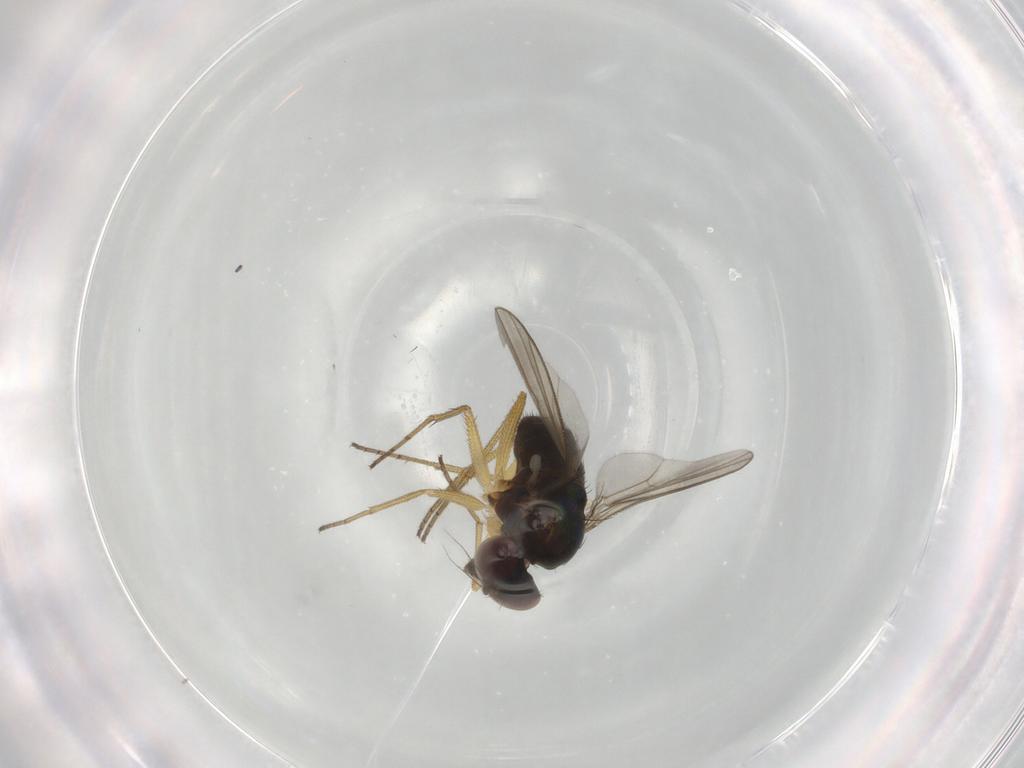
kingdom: Animalia
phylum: Arthropoda
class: Insecta
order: Diptera
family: Dolichopodidae
